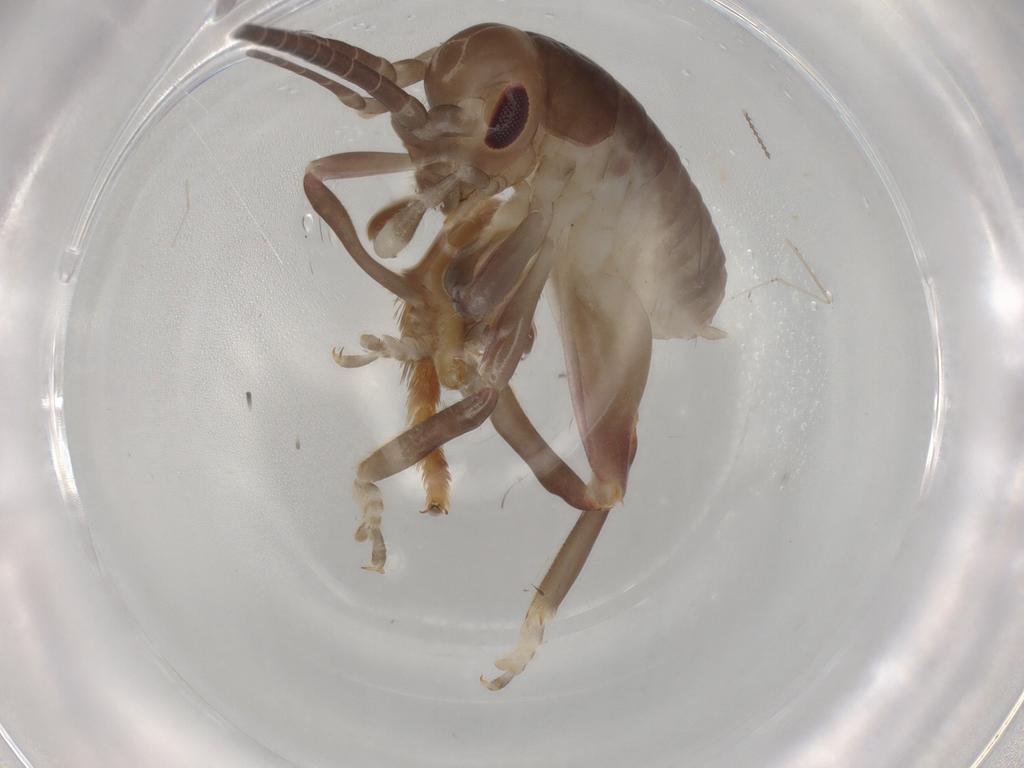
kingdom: Animalia
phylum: Arthropoda
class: Insecta
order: Orthoptera
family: Gryllacrididae
